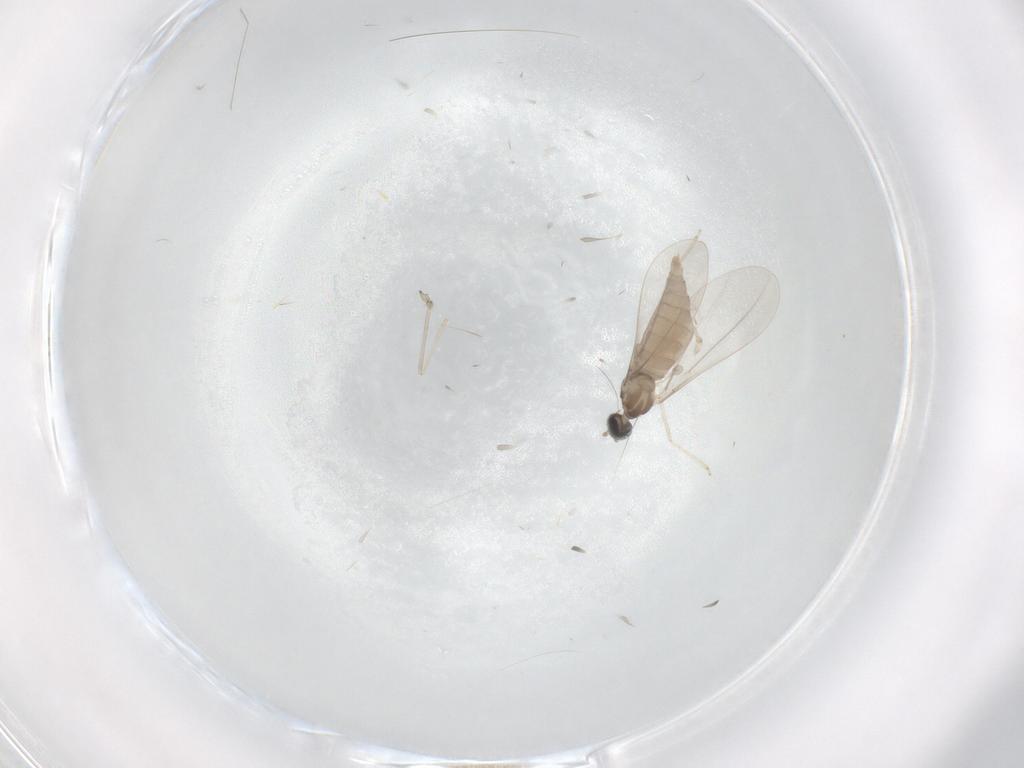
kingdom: Animalia
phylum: Arthropoda
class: Insecta
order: Diptera
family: Cecidomyiidae
